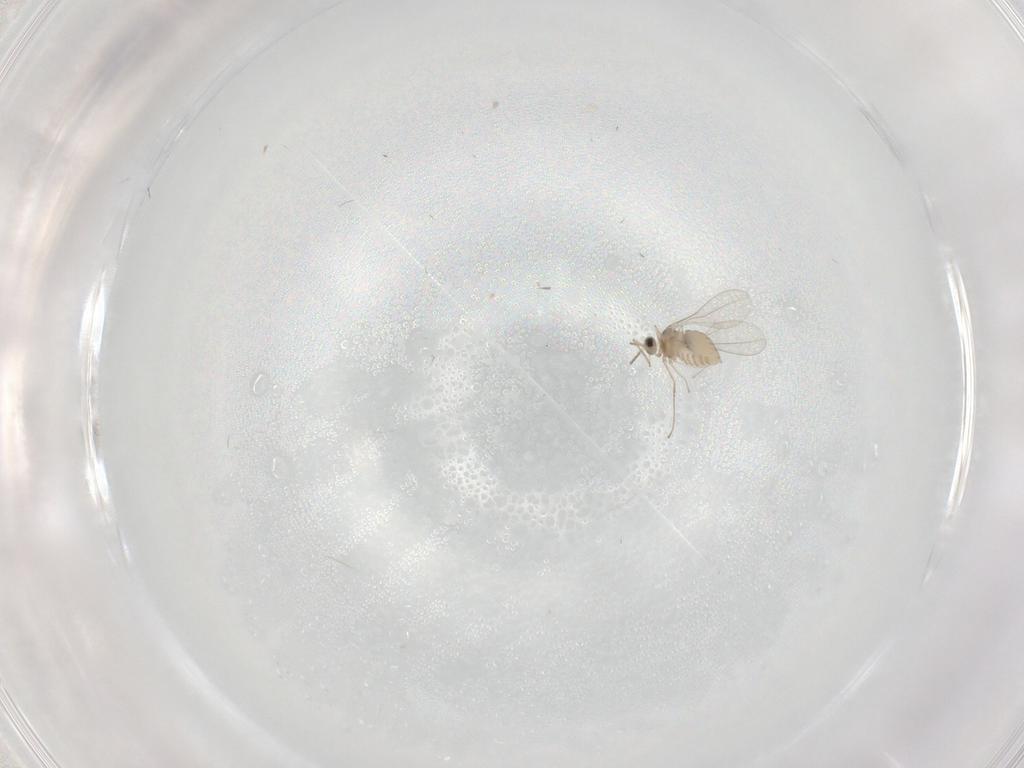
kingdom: Animalia
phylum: Arthropoda
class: Insecta
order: Diptera
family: Cecidomyiidae
